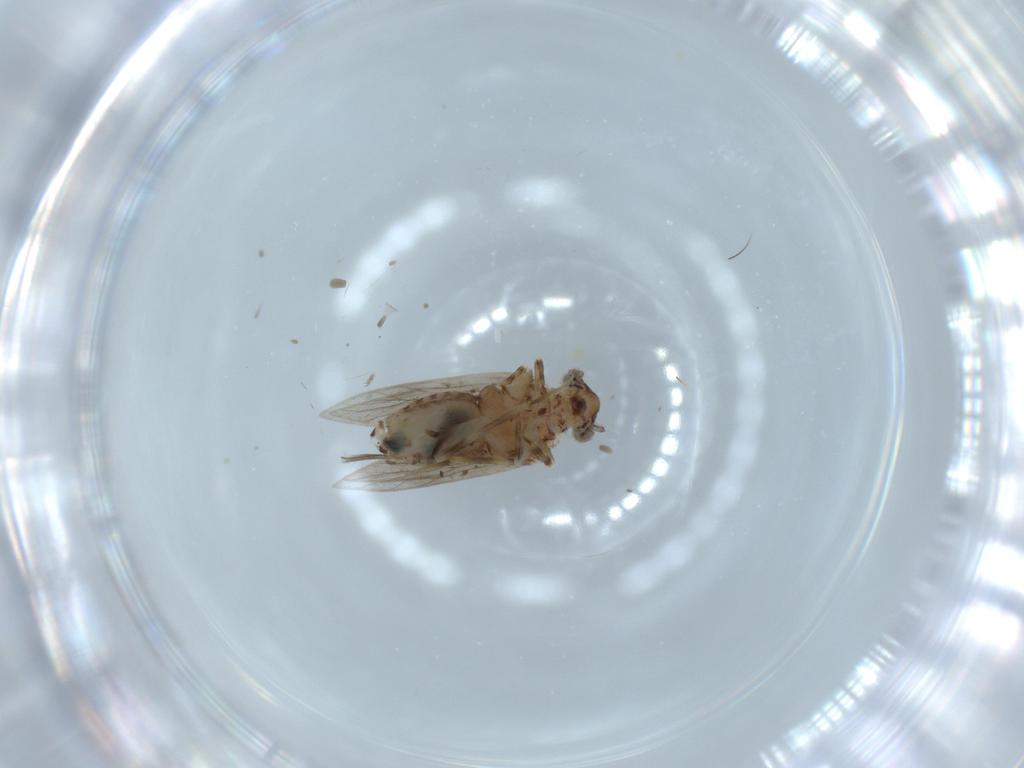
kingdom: Animalia
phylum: Arthropoda
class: Insecta
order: Psocodea
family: Lepidopsocidae
